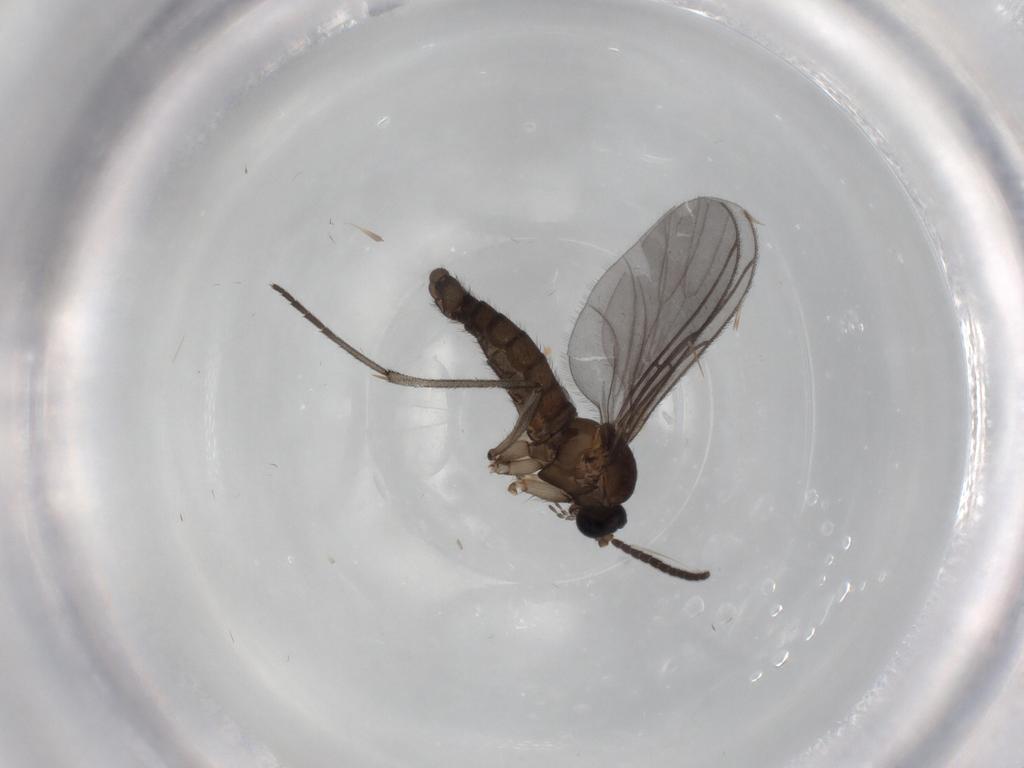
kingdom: Animalia
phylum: Arthropoda
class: Insecta
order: Diptera
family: Sciaridae
